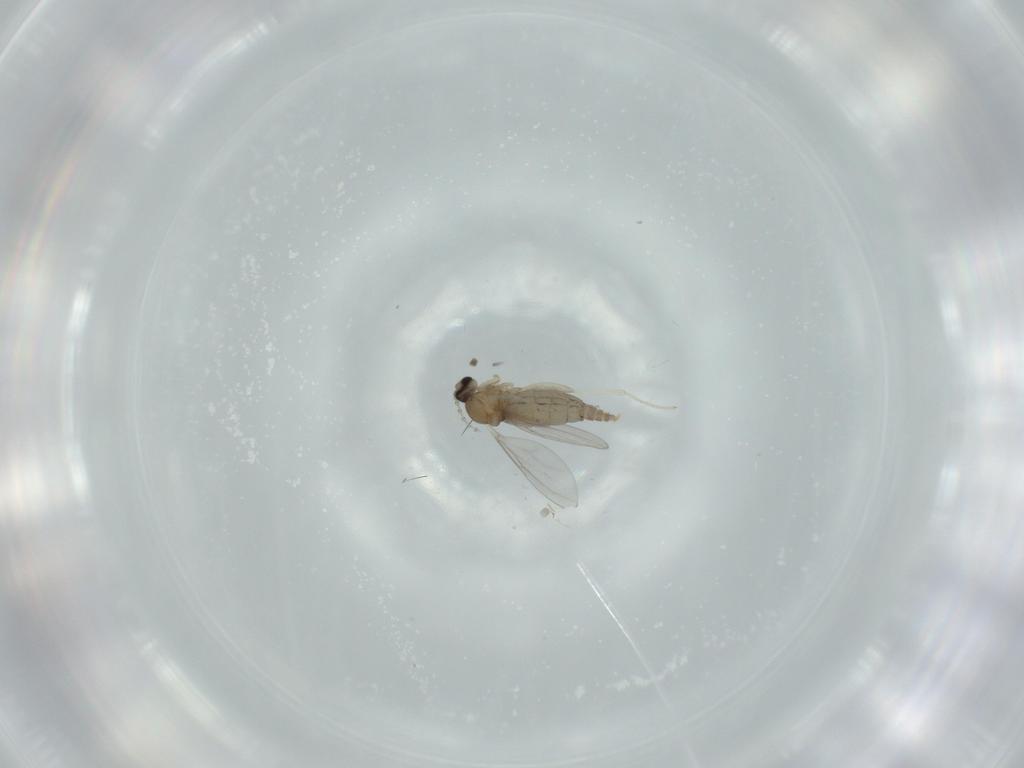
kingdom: Animalia
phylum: Arthropoda
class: Insecta
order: Diptera
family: Cecidomyiidae
